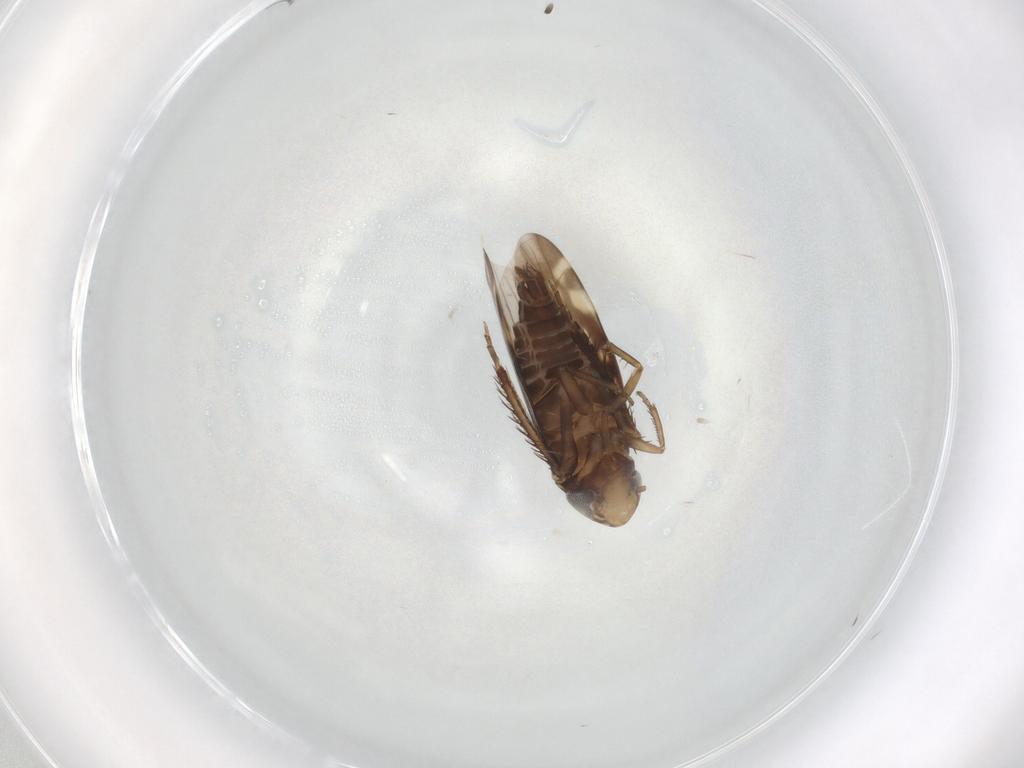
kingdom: Animalia
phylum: Arthropoda
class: Insecta
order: Hemiptera
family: Cicadellidae
